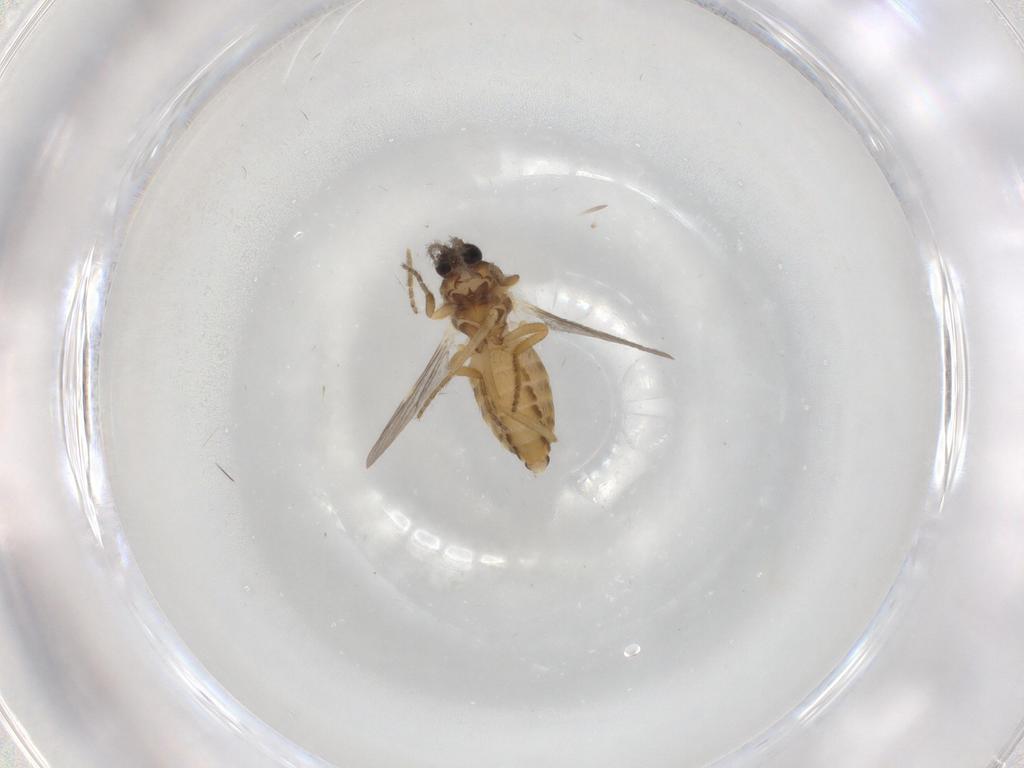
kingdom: Animalia
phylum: Arthropoda
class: Insecta
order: Diptera
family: Ceratopogonidae
